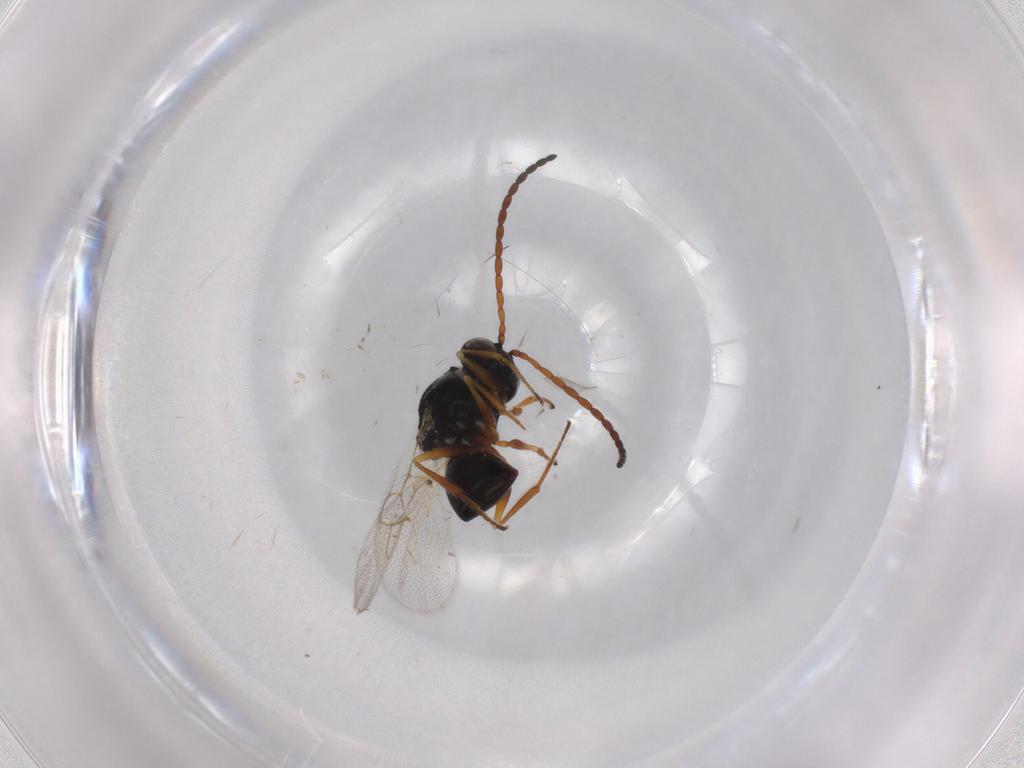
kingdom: Animalia
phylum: Arthropoda
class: Insecta
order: Hymenoptera
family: Figitidae
